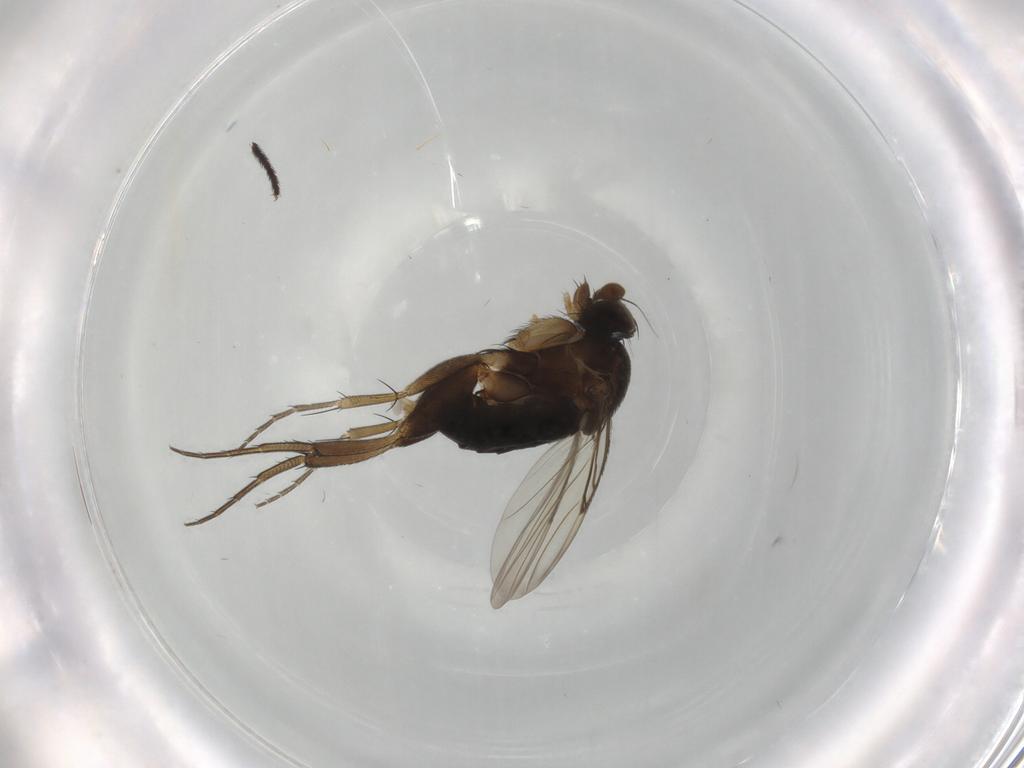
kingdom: Animalia
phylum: Arthropoda
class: Insecta
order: Diptera
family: Phoridae
